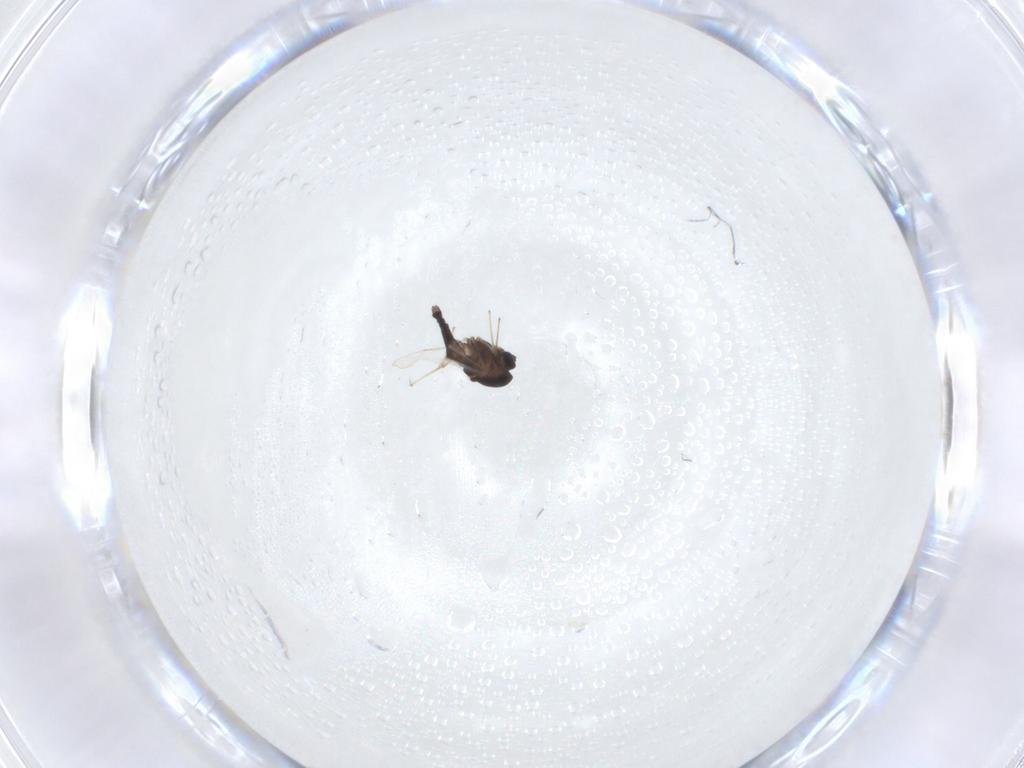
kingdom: Animalia
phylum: Arthropoda
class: Insecta
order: Diptera
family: Chironomidae
